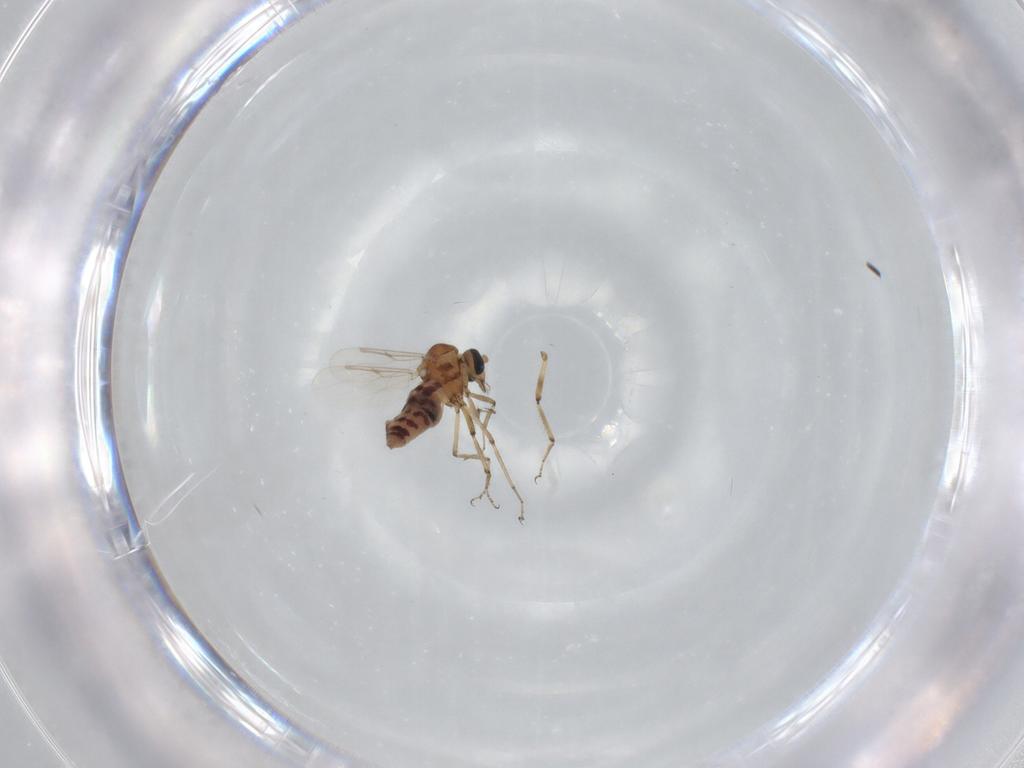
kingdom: Animalia
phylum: Arthropoda
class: Insecta
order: Diptera
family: Ceratopogonidae
